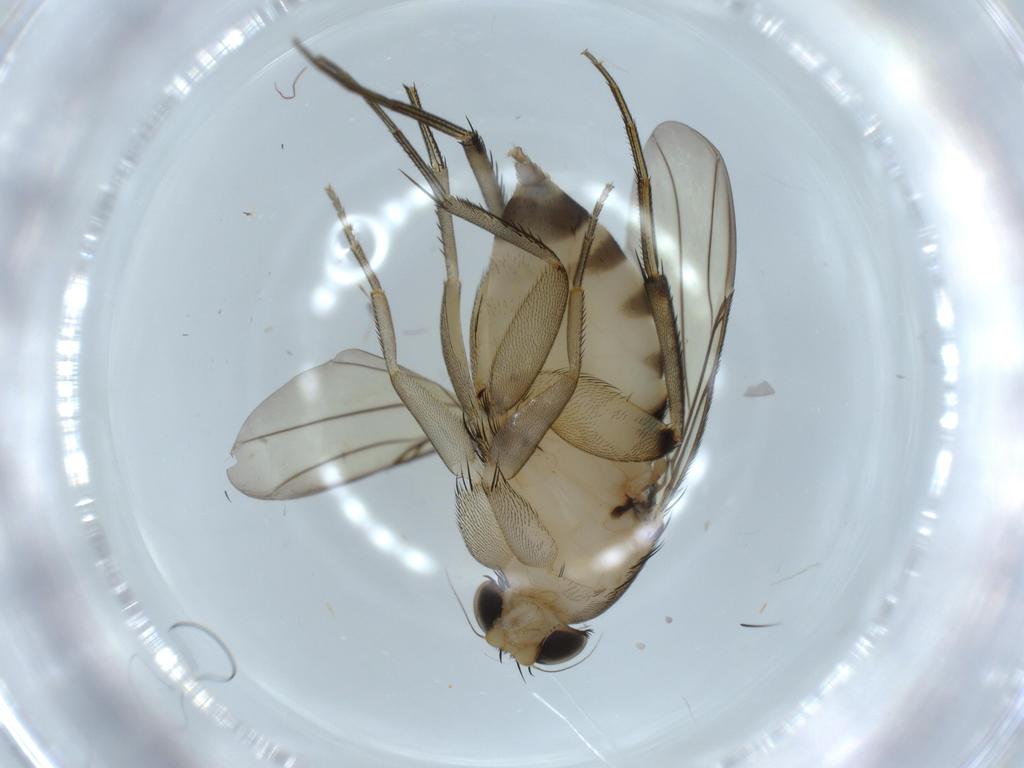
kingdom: Animalia
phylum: Arthropoda
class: Insecta
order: Diptera
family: Phoridae
